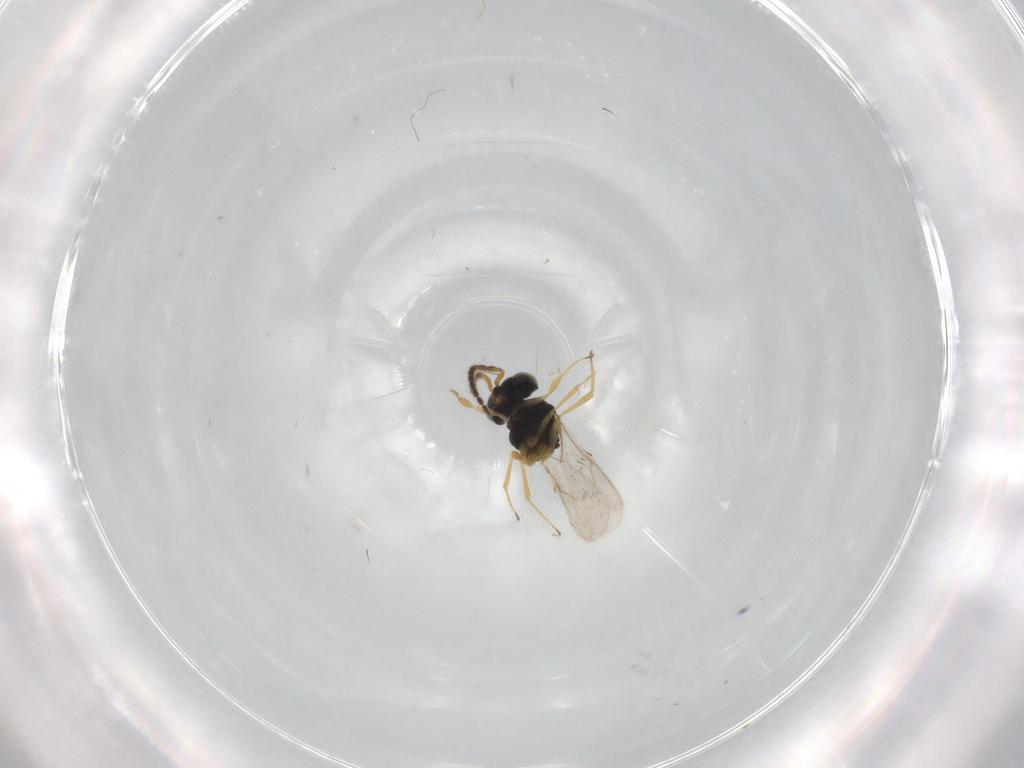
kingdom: Animalia
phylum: Arthropoda
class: Insecta
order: Hymenoptera
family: Scelionidae
